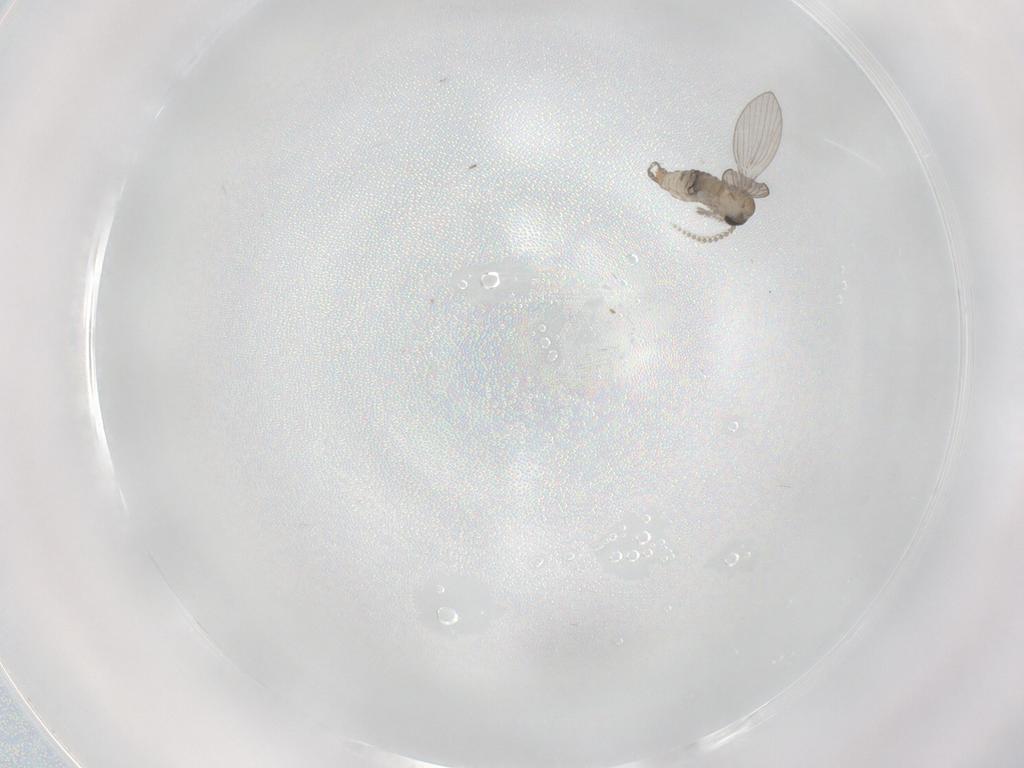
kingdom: Animalia
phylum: Arthropoda
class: Insecta
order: Diptera
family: Psychodidae
